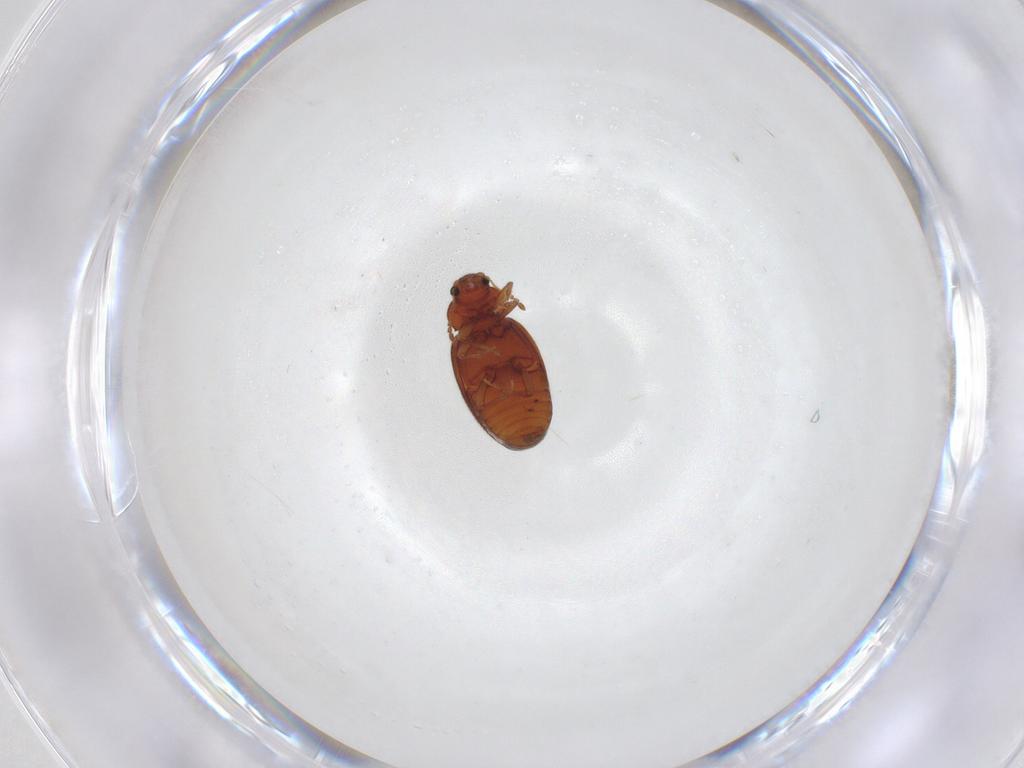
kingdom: Animalia
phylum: Arthropoda
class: Insecta
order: Coleoptera
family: Latridiidae
